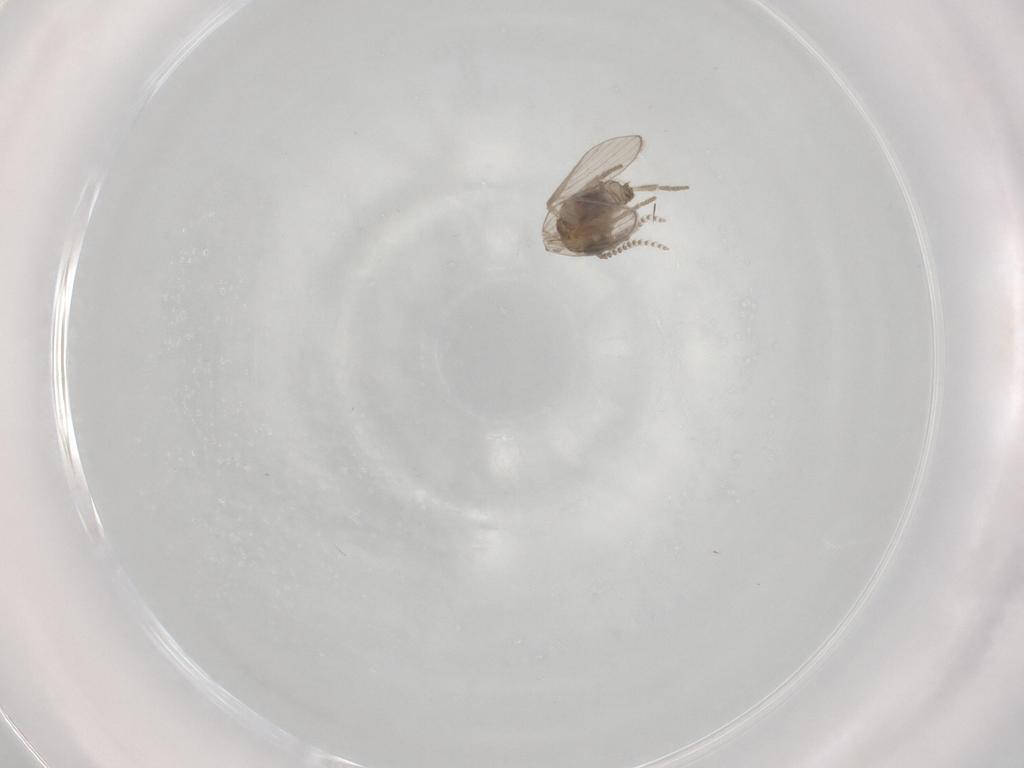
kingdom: Animalia
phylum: Arthropoda
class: Insecta
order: Diptera
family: Psychodidae
